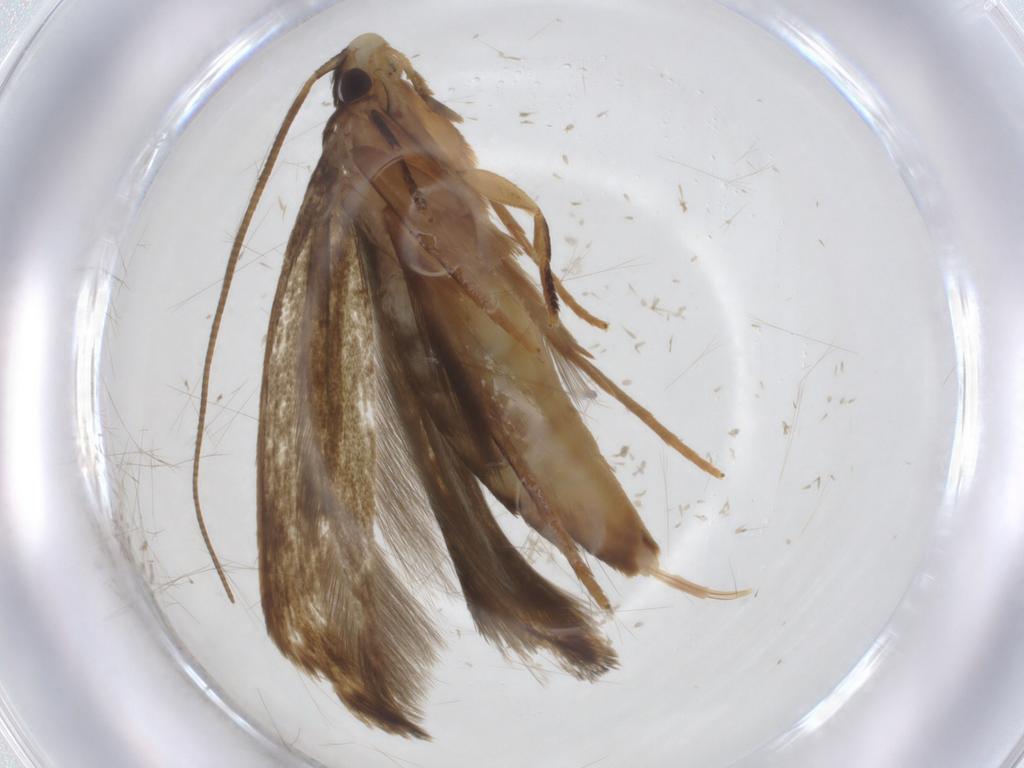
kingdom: Animalia
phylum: Arthropoda
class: Insecta
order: Lepidoptera
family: Tineidae
